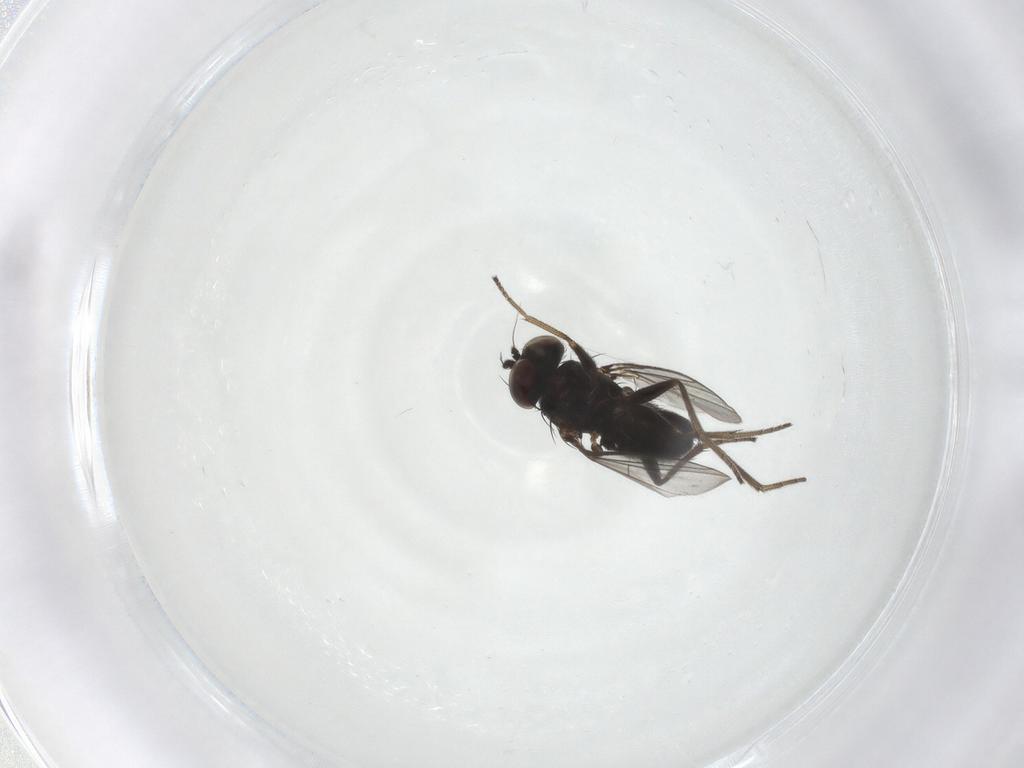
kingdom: Animalia
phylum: Arthropoda
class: Insecta
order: Diptera
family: Dolichopodidae
